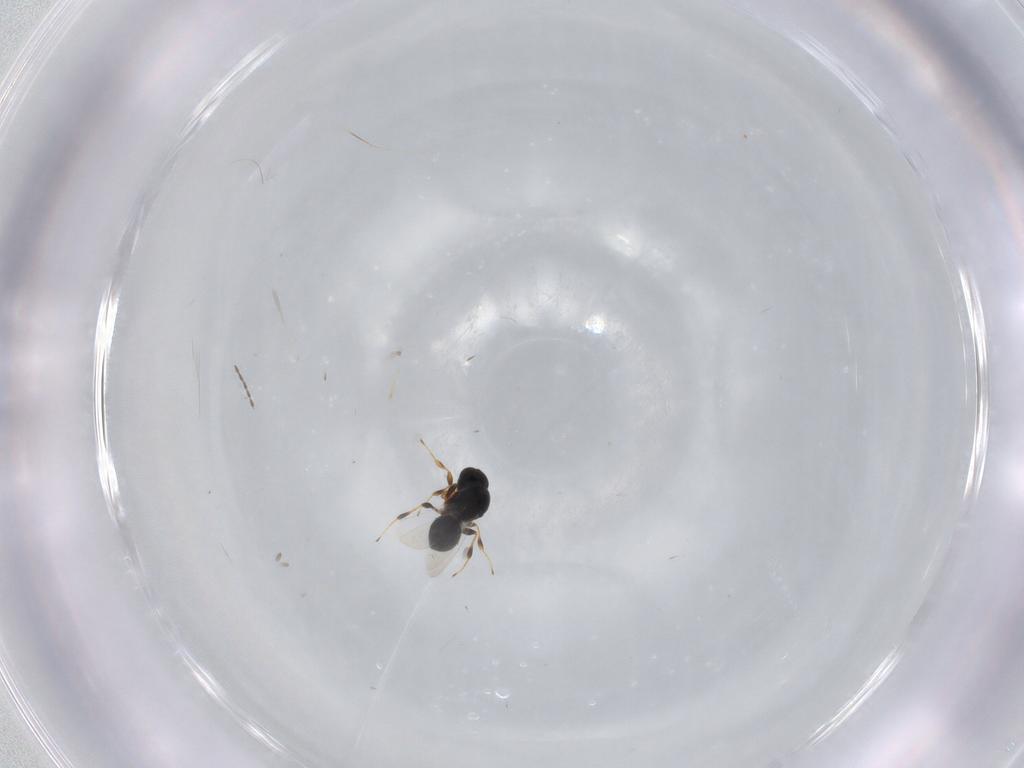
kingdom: Animalia
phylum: Arthropoda
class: Insecta
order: Hymenoptera
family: Platygastridae
